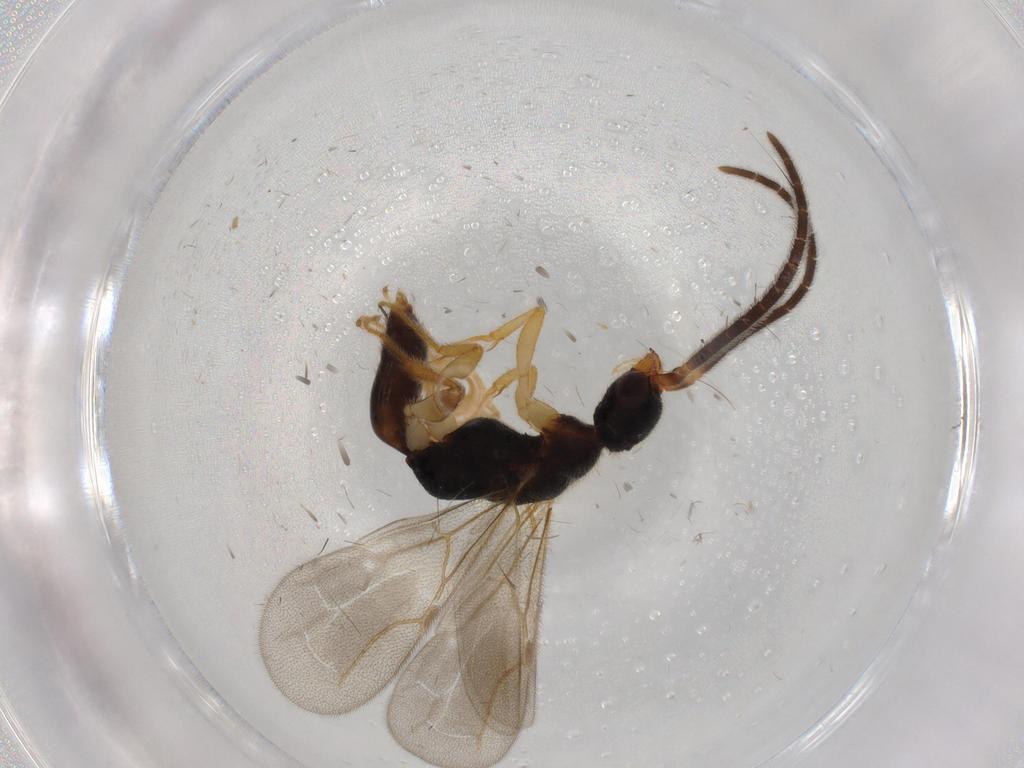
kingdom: Animalia
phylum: Arthropoda
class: Insecta
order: Hymenoptera
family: Bethylidae
